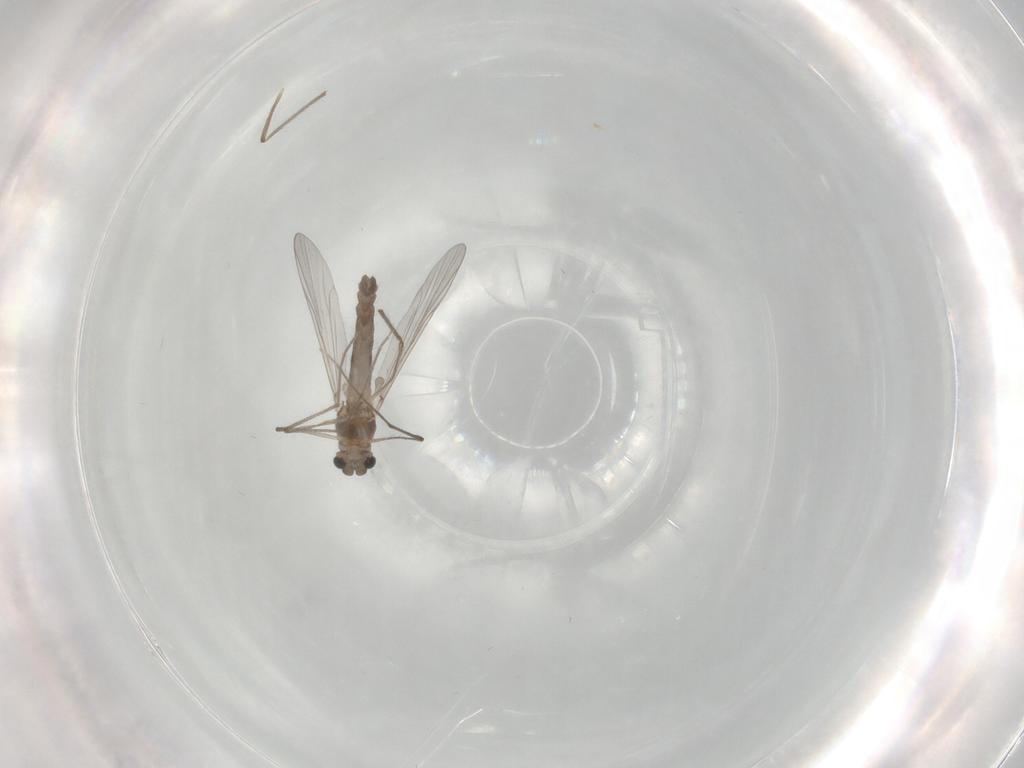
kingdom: Animalia
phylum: Arthropoda
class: Insecta
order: Diptera
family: Chironomidae
